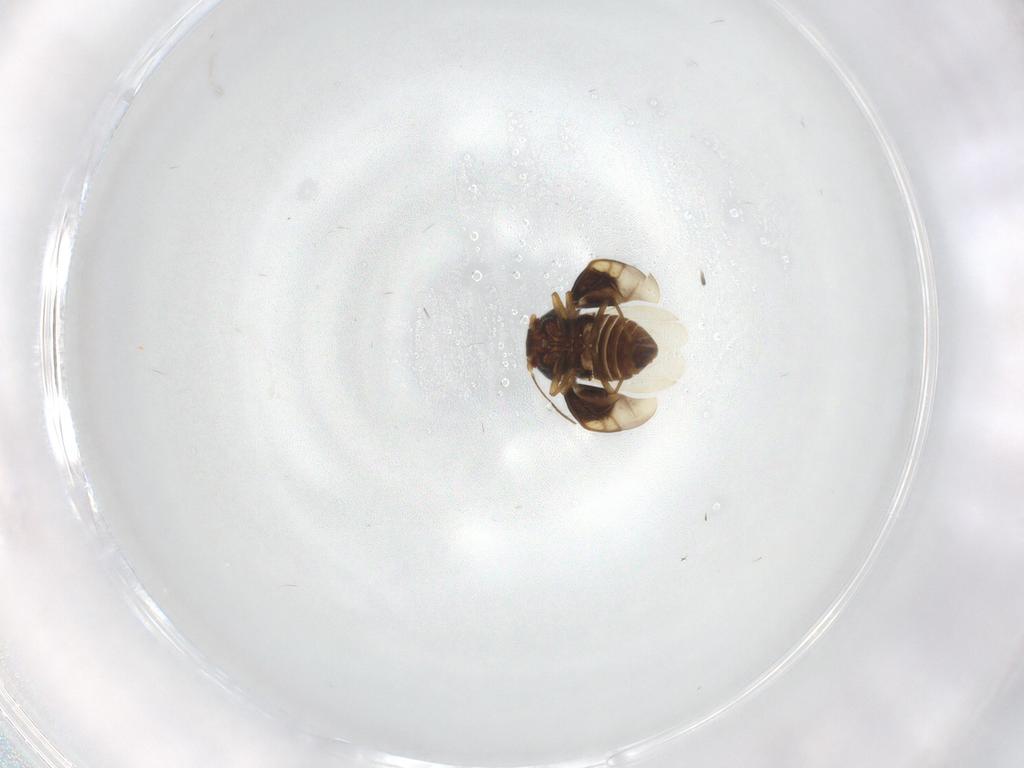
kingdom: Animalia
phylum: Arthropoda
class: Insecta
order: Hemiptera
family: Schizopteridae
